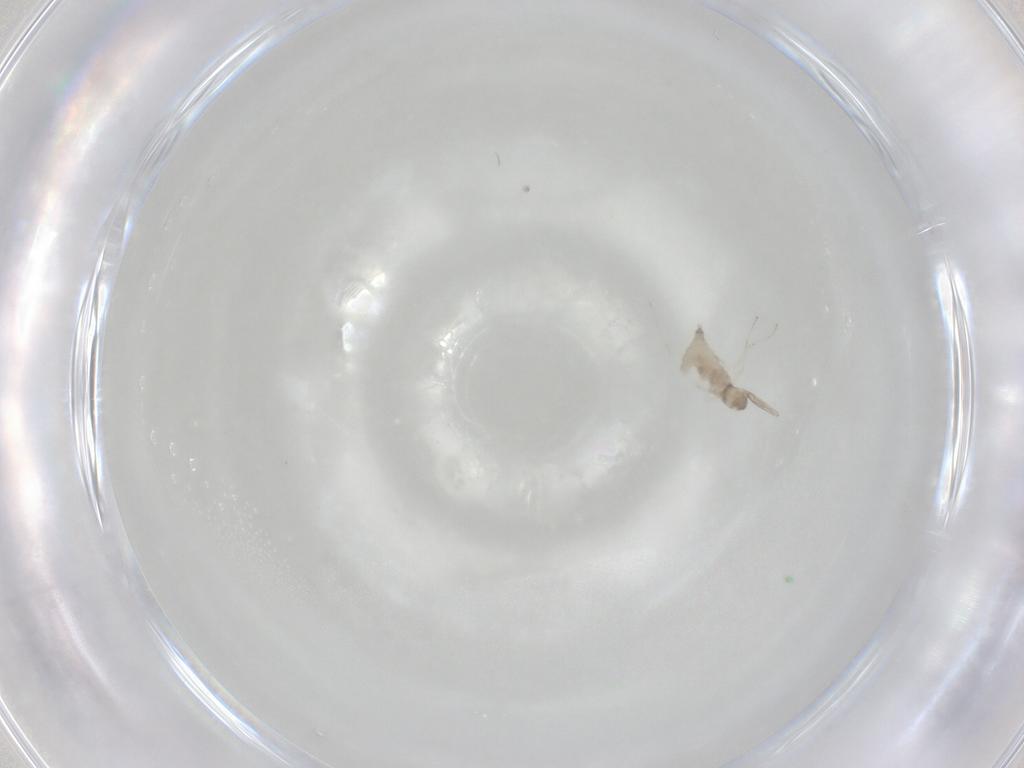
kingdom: Animalia
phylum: Arthropoda
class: Insecta
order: Diptera
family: Cecidomyiidae
